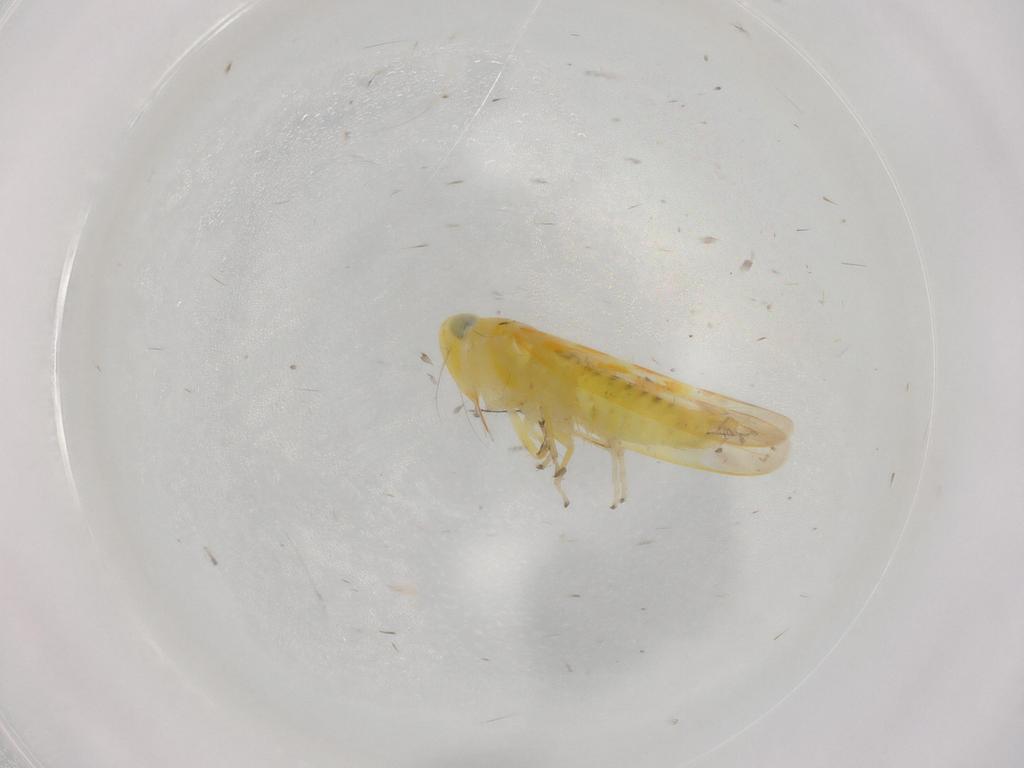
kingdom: Animalia
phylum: Arthropoda
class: Insecta
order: Hemiptera
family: Cicadellidae
